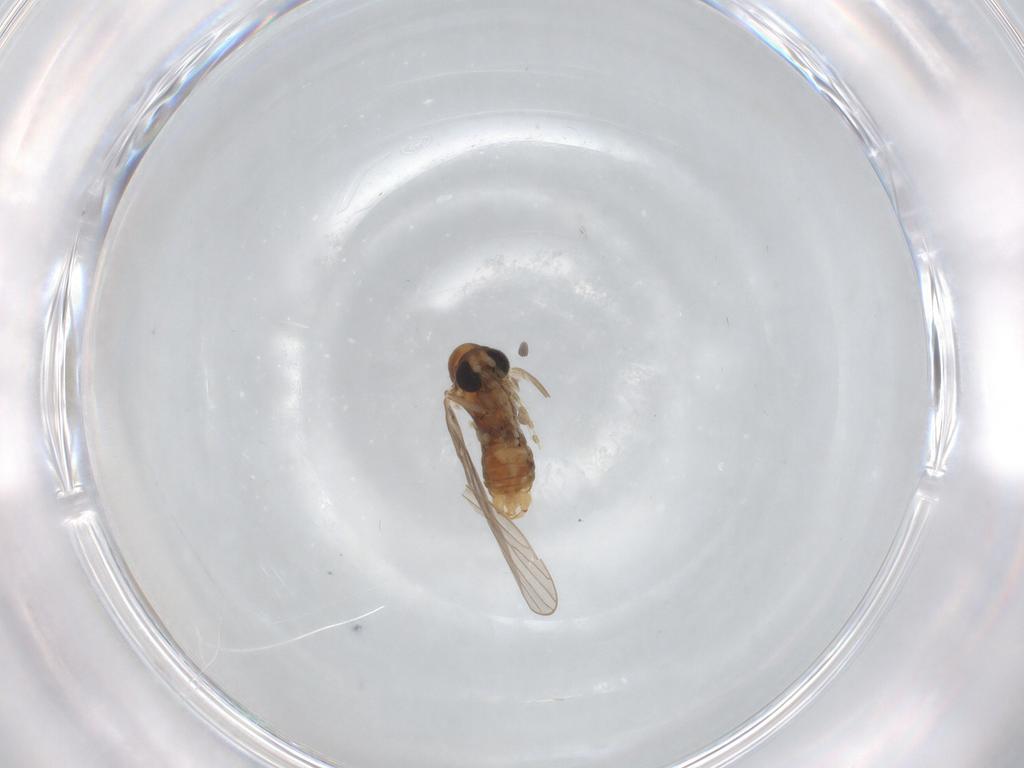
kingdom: Animalia
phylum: Arthropoda
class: Insecta
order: Diptera
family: Psychodidae
